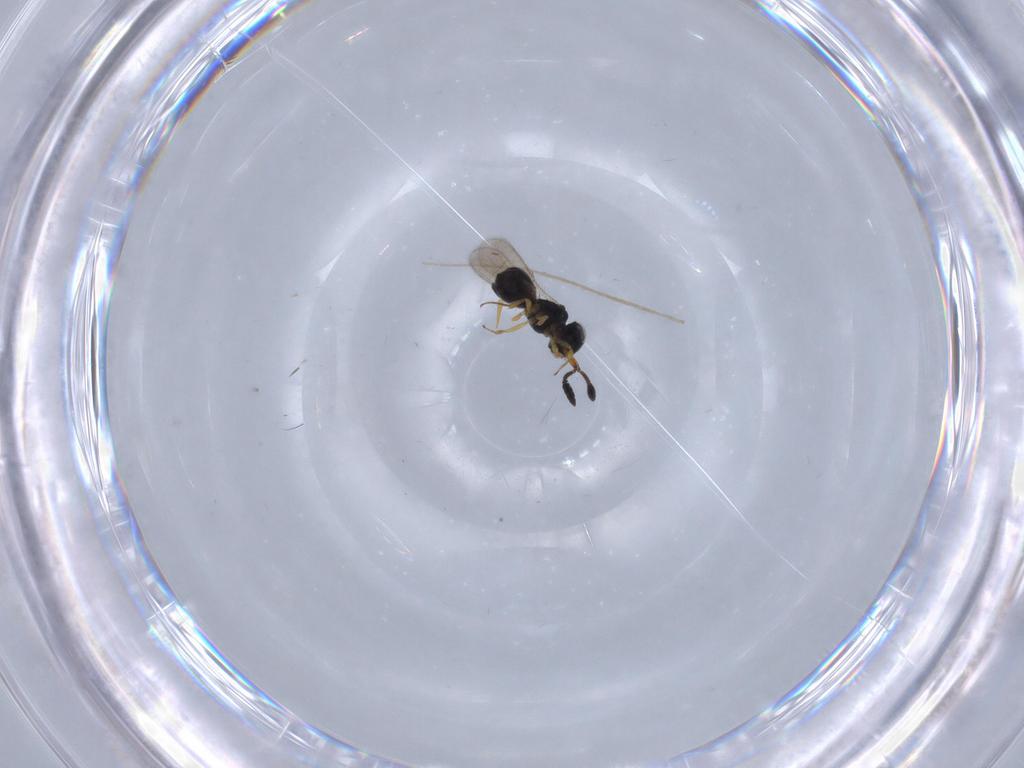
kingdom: Animalia
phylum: Arthropoda
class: Insecta
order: Hymenoptera
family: Scelionidae
